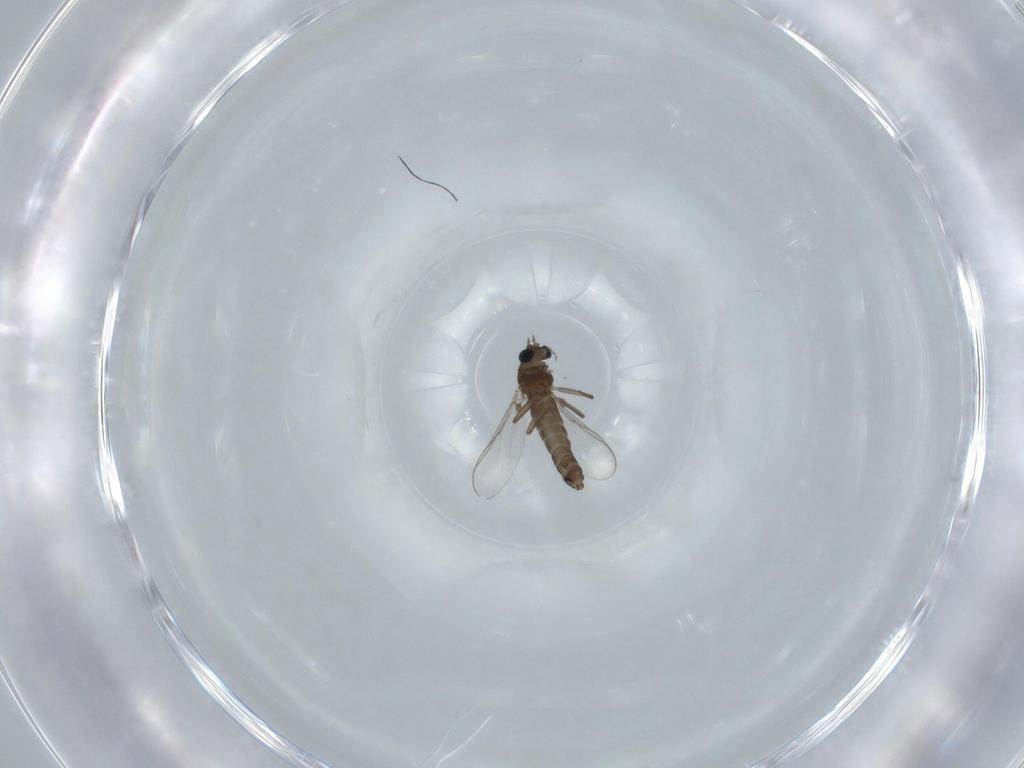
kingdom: Animalia
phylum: Arthropoda
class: Insecta
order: Diptera
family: Chironomidae
